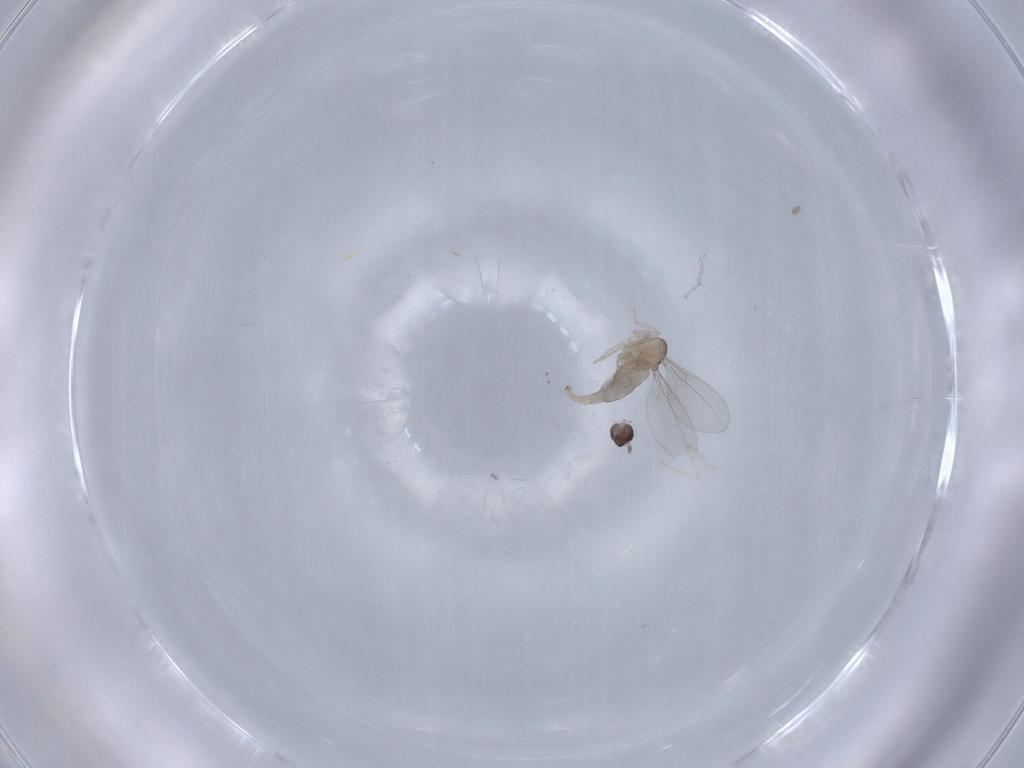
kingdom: Animalia
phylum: Arthropoda
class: Insecta
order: Diptera
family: Cecidomyiidae
